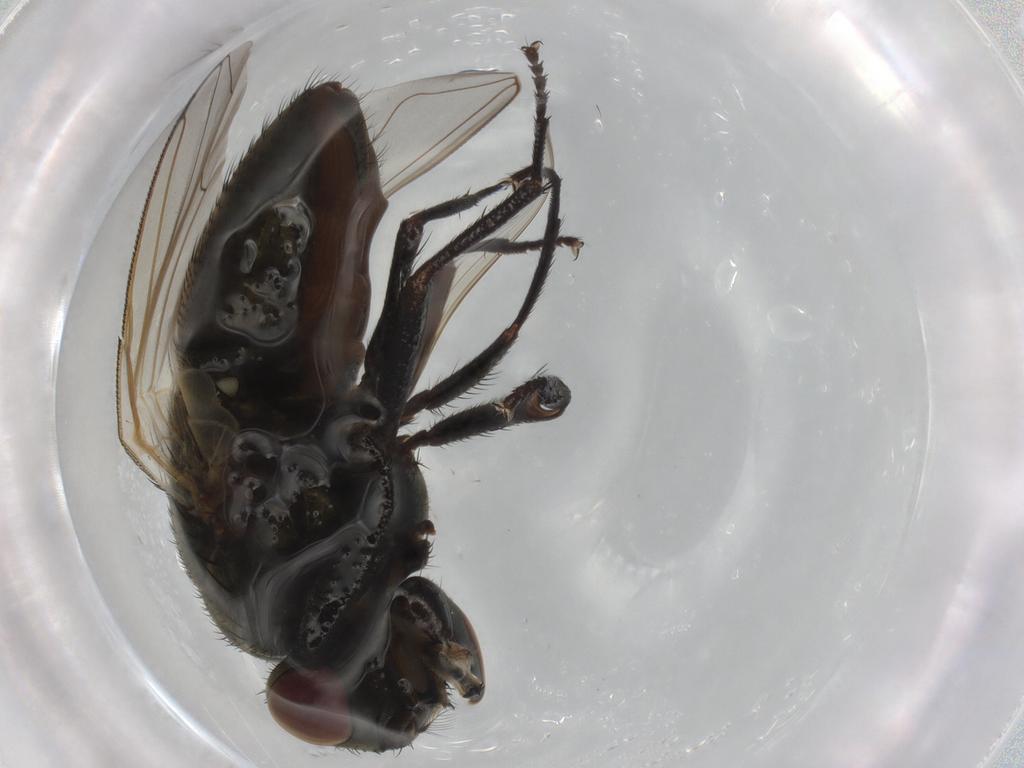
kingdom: Animalia
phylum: Arthropoda
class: Insecta
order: Diptera
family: Muscidae
